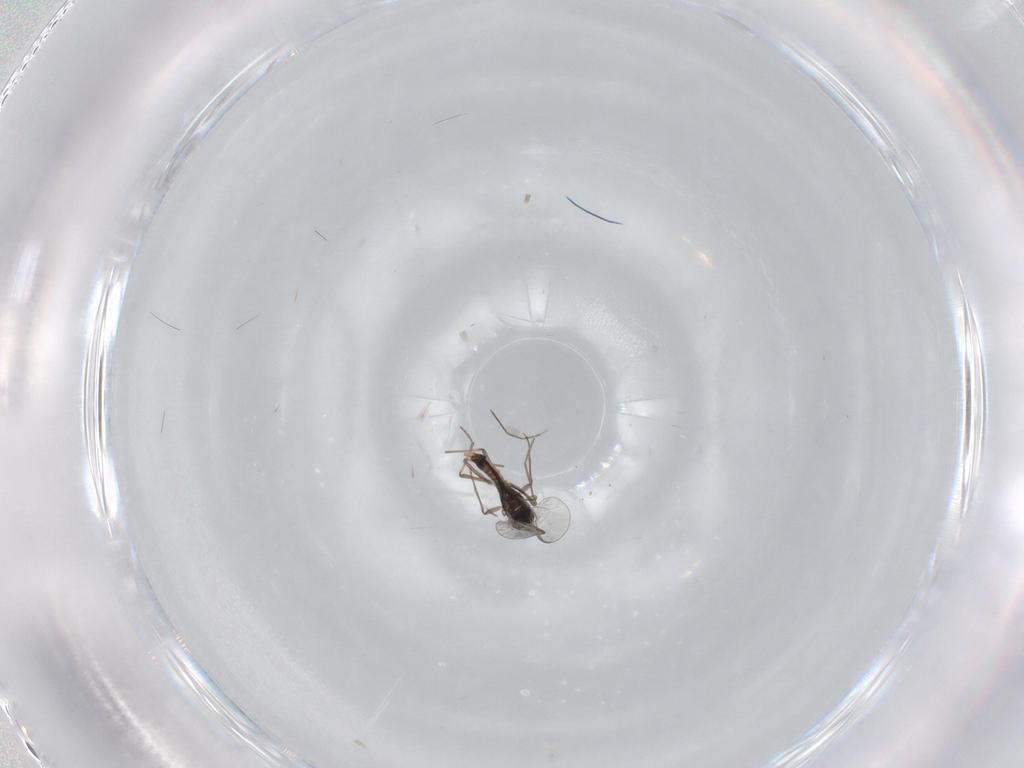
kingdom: Animalia
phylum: Arthropoda
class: Insecta
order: Diptera
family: Chironomidae
